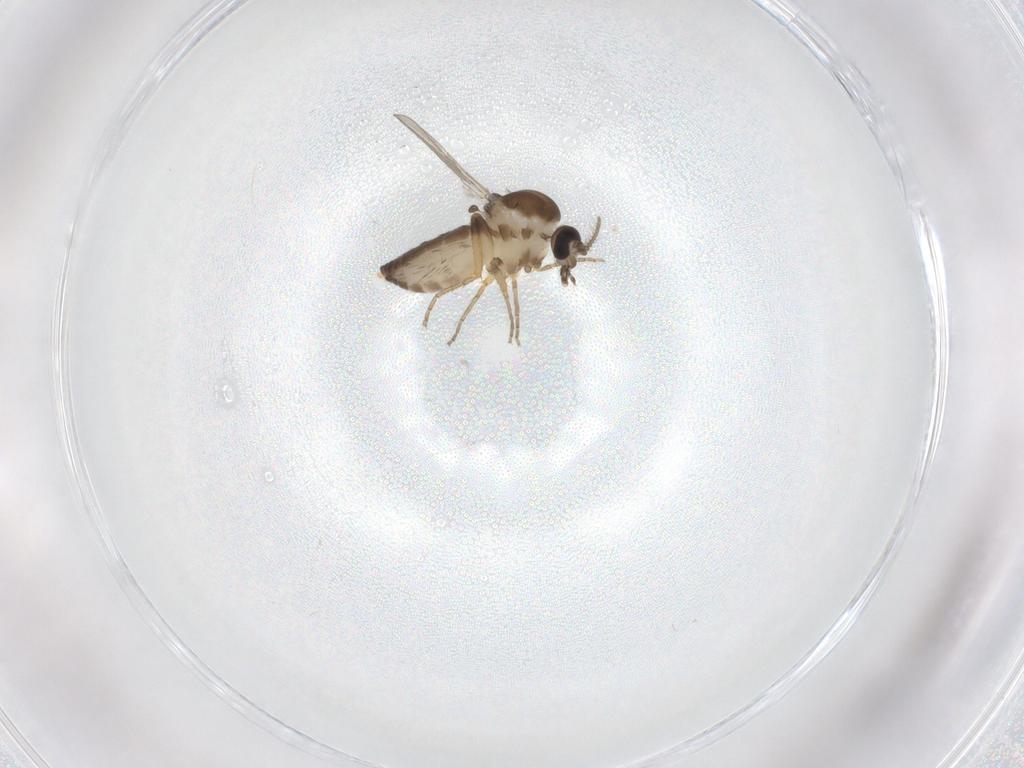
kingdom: Animalia
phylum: Arthropoda
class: Insecta
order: Diptera
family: Ceratopogonidae
